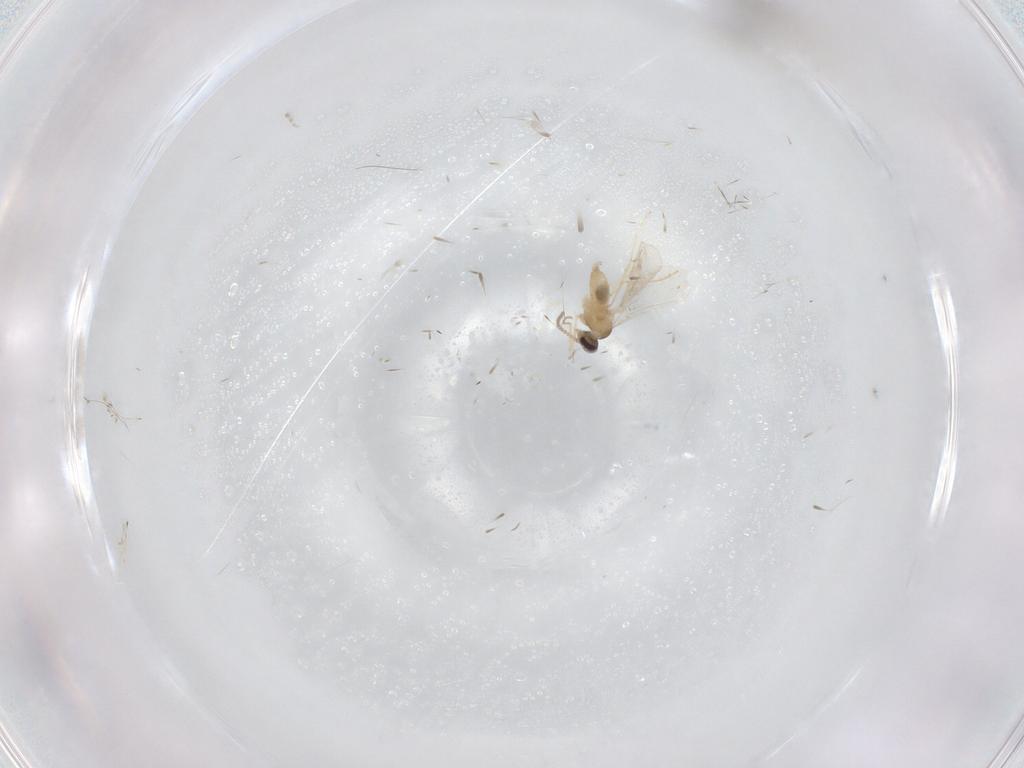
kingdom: Animalia
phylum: Arthropoda
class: Insecta
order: Diptera
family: Cecidomyiidae
